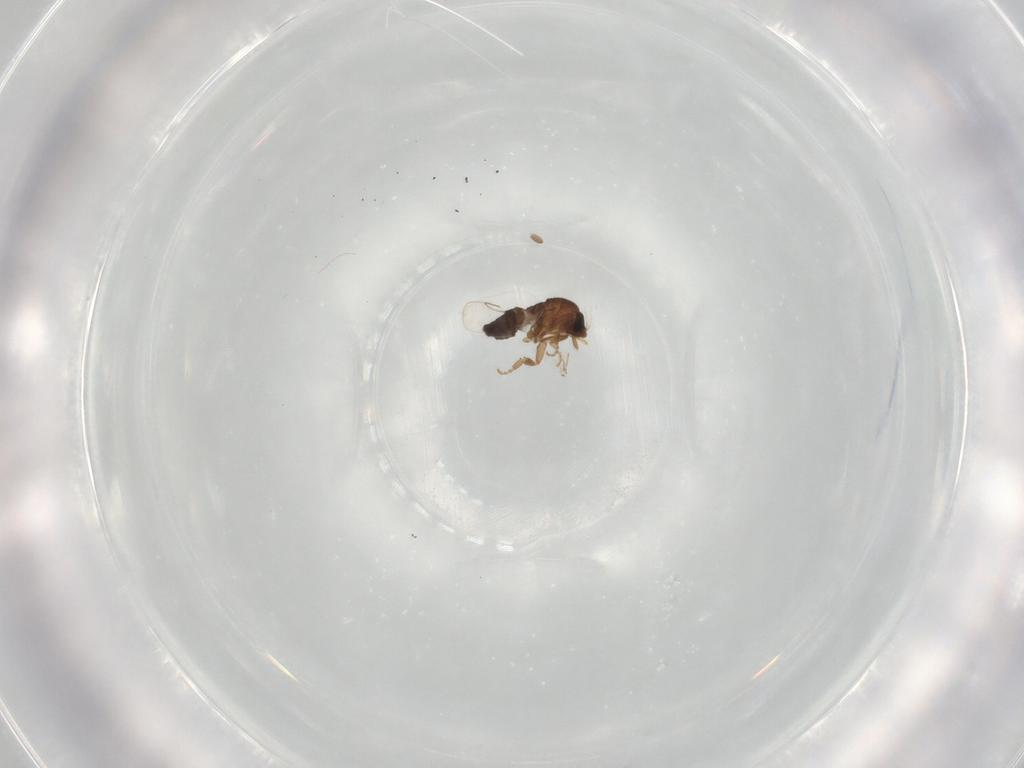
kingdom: Animalia
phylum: Arthropoda
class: Insecta
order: Diptera
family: Phoridae
